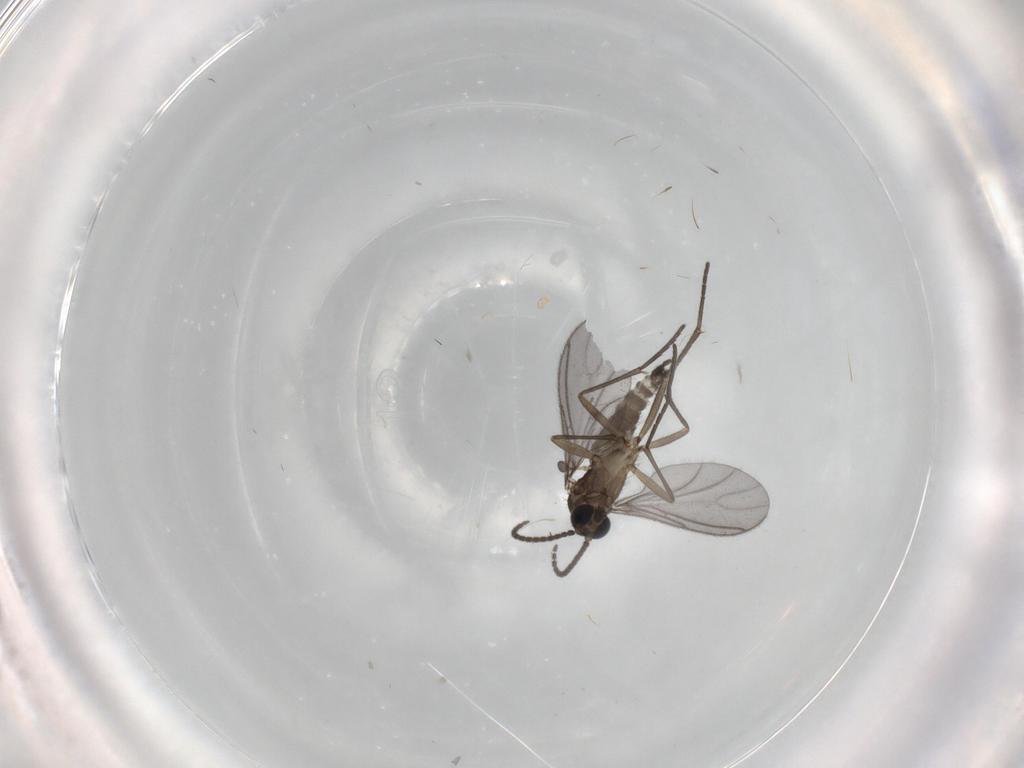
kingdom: Animalia
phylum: Arthropoda
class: Insecta
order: Diptera
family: Sciaridae
